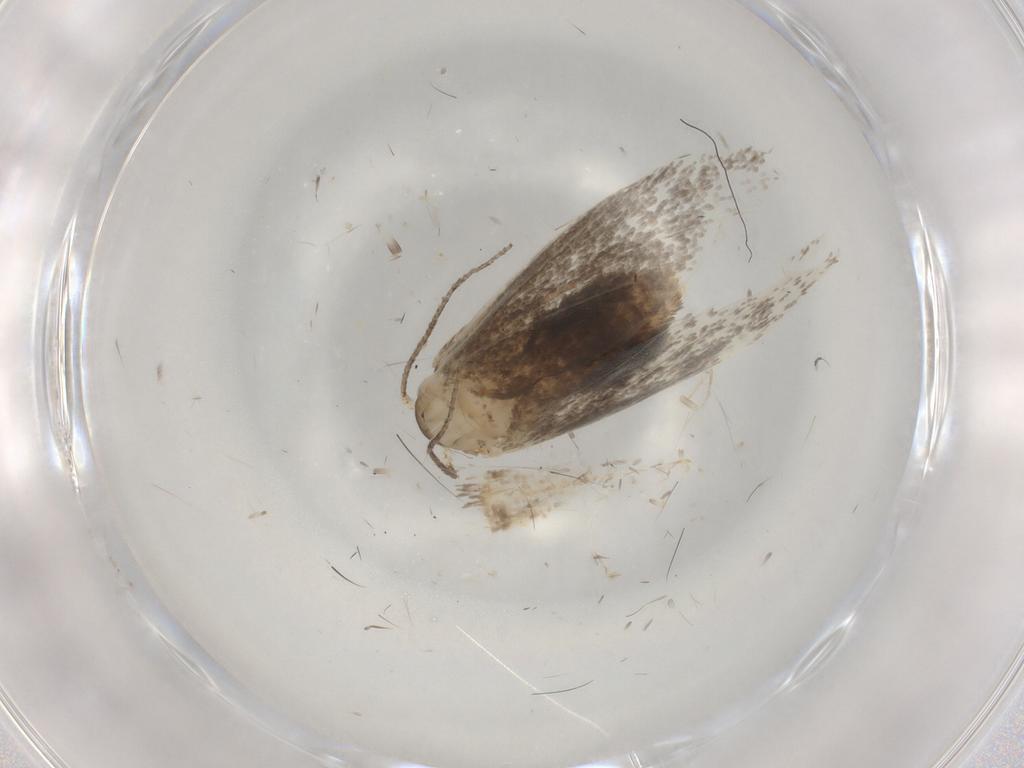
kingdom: Animalia
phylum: Arthropoda
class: Insecta
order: Lepidoptera
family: Dryadaulidae
